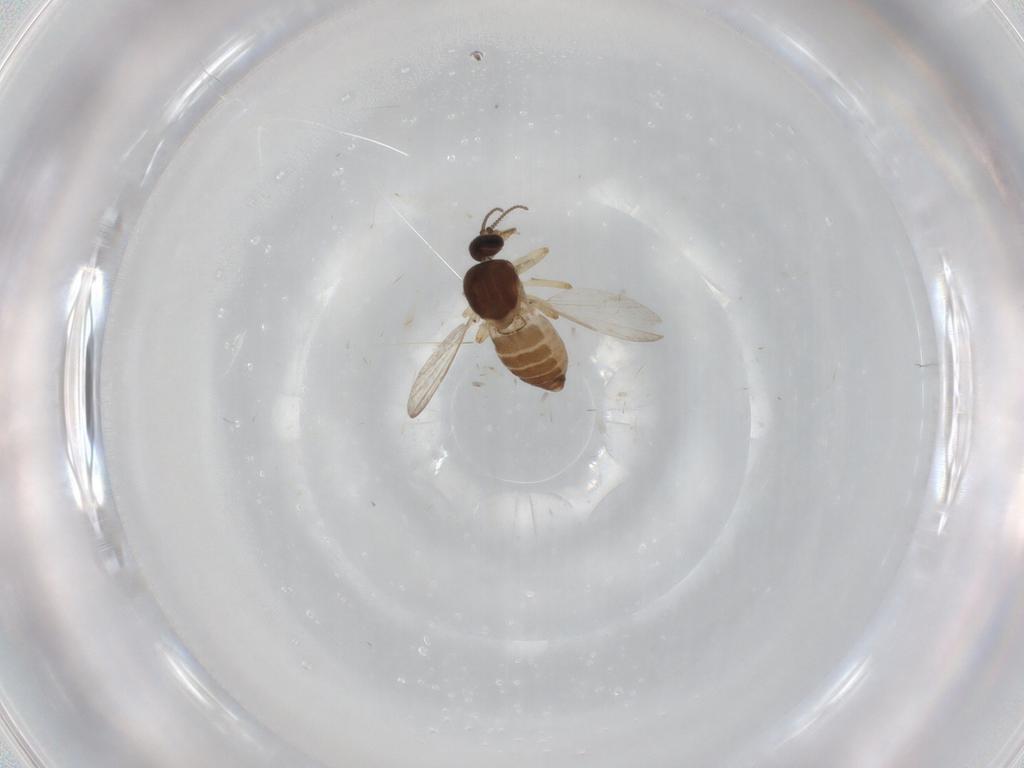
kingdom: Animalia
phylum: Arthropoda
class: Insecta
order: Diptera
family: Ceratopogonidae
